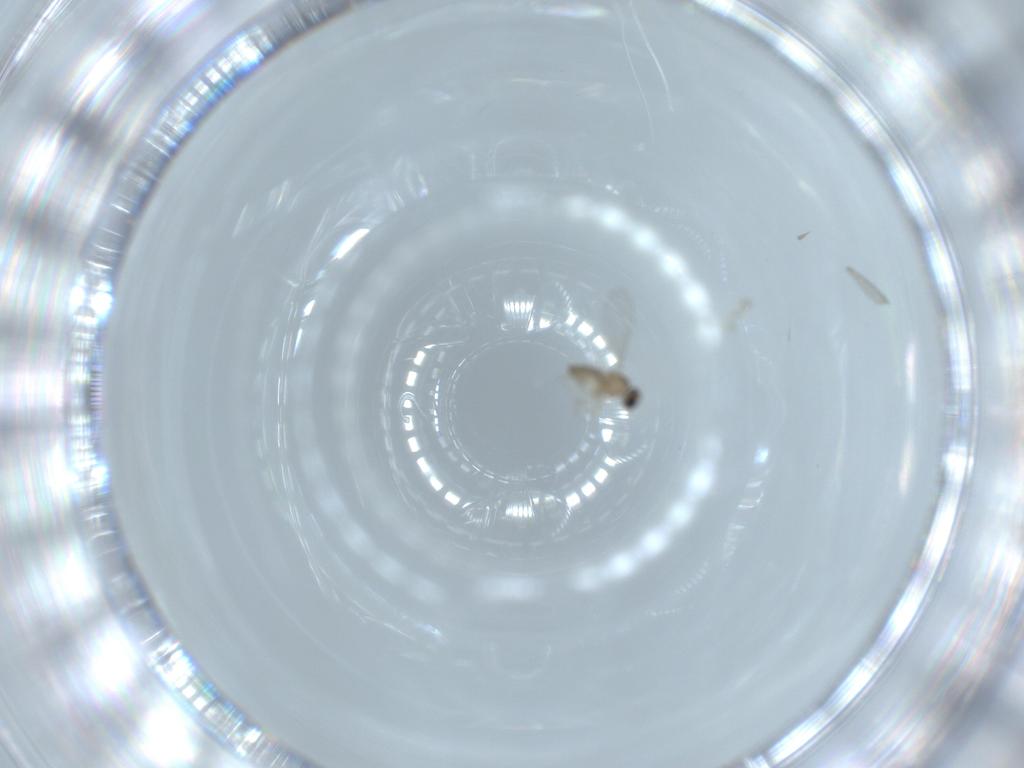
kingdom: Animalia
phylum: Arthropoda
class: Insecta
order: Diptera
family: Cecidomyiidae
